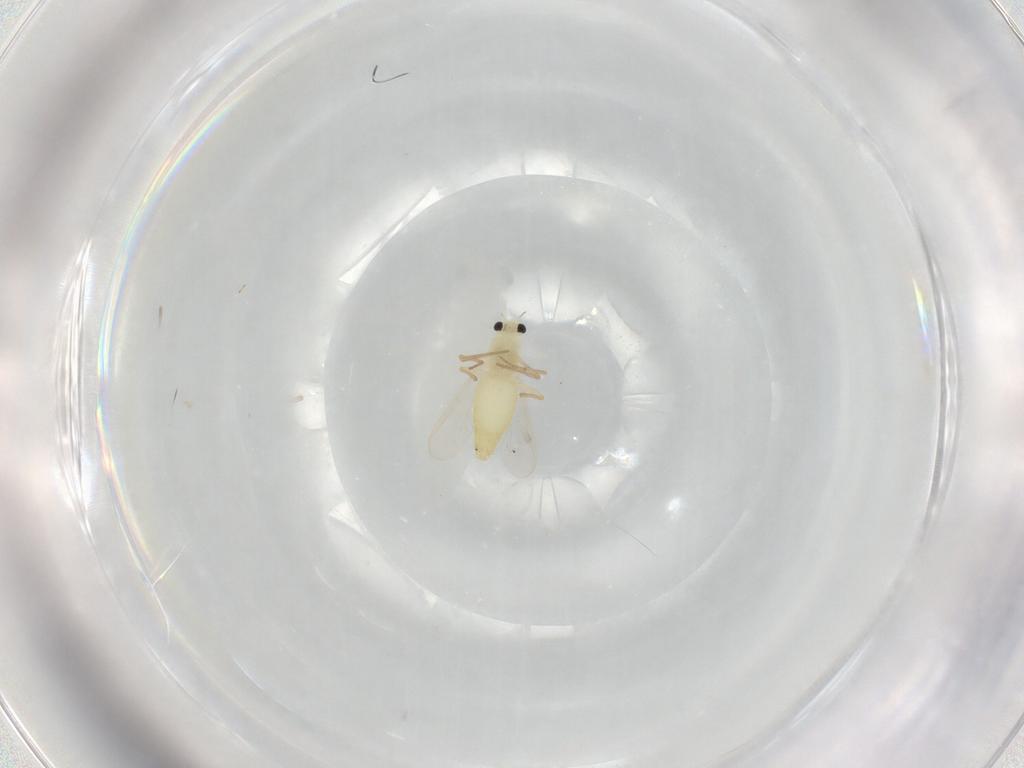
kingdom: Animalia
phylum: Arthropoda
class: Insecta
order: Diptera
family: Chironomidae
